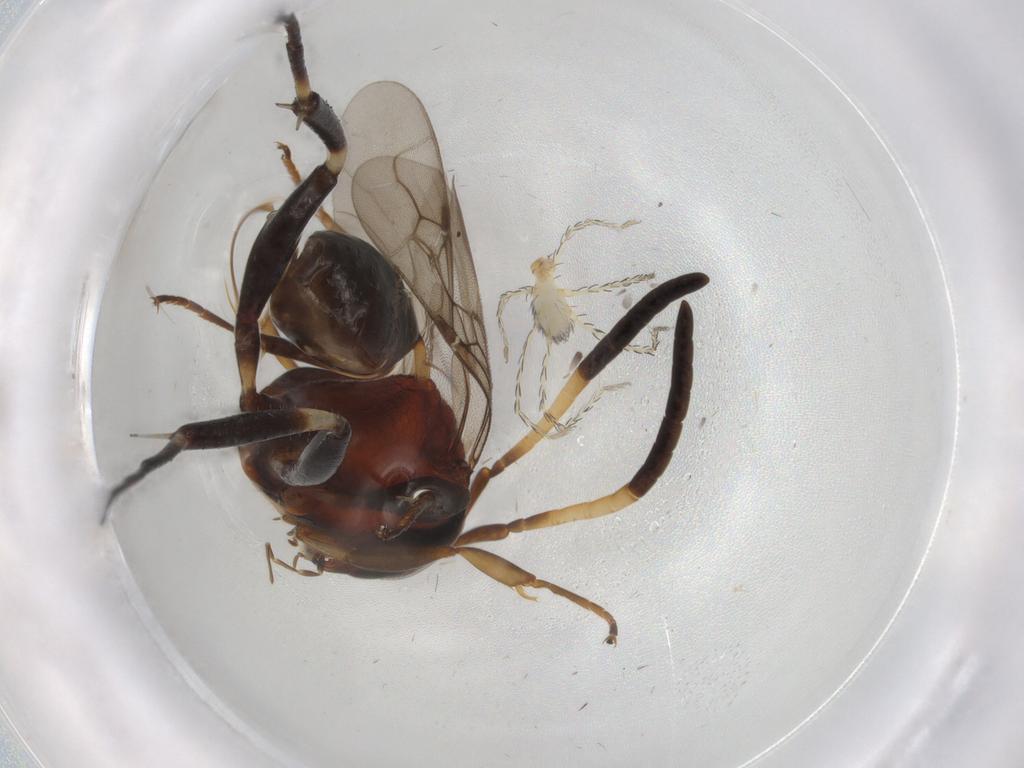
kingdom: Animalia
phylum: Arthropoda
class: Arachnida
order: Trombidiformes
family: Erythraeidae
